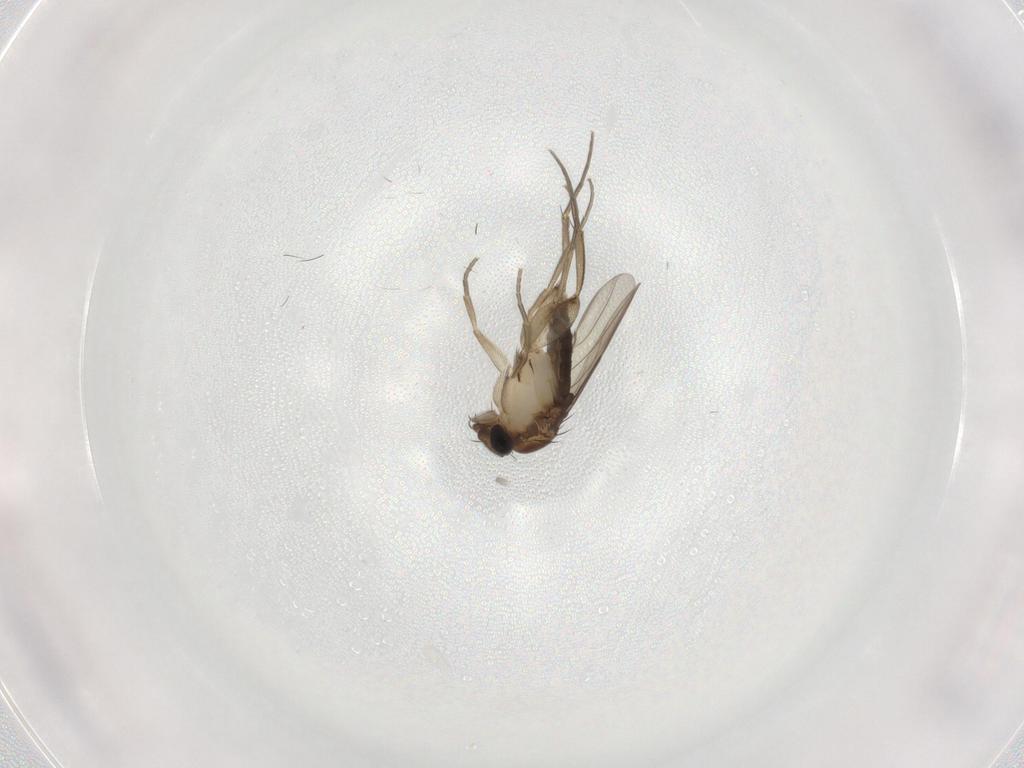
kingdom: Animalia
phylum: Arthropoda
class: Insecta
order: Diptera
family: Phoridae
